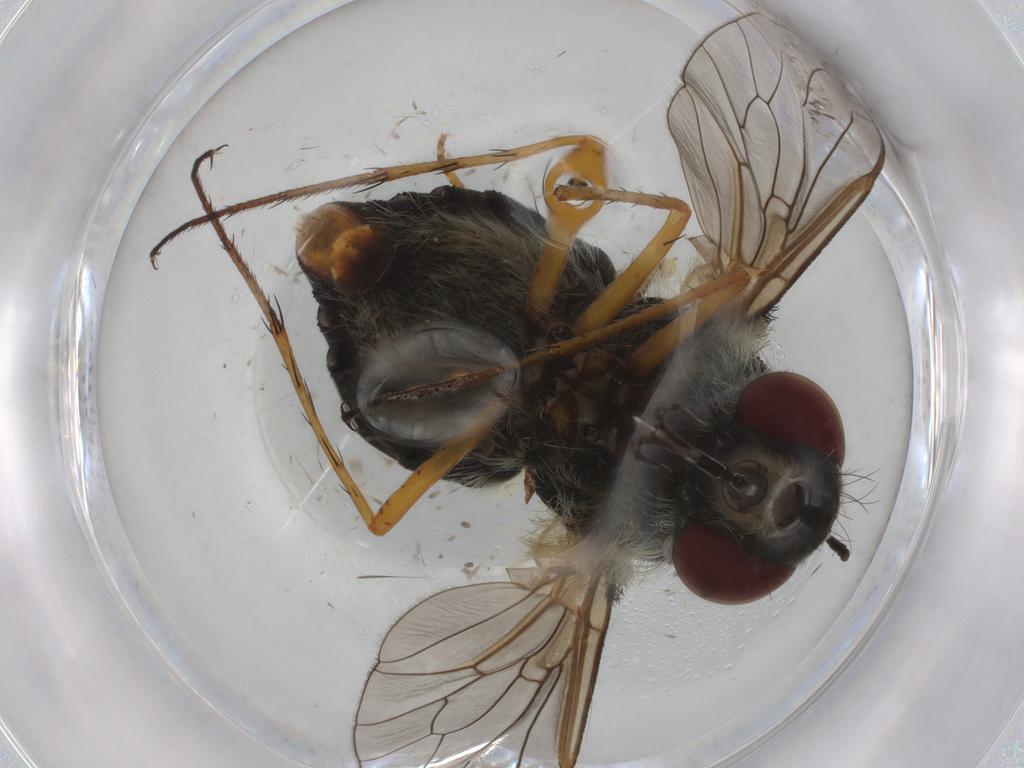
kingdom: Animalia
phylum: Arthropoda
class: Insecta
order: Diptera
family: Bombyliidae
